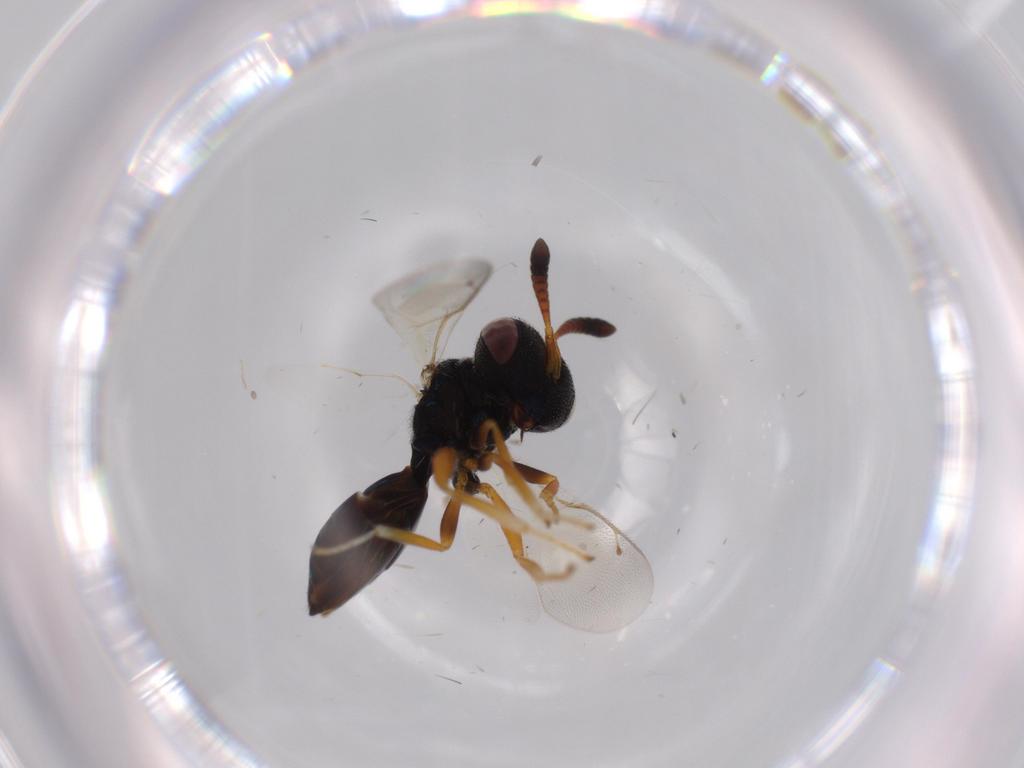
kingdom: Animalia
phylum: Arthropoda
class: Insecta
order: Hymenoptera
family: Agaonidae
